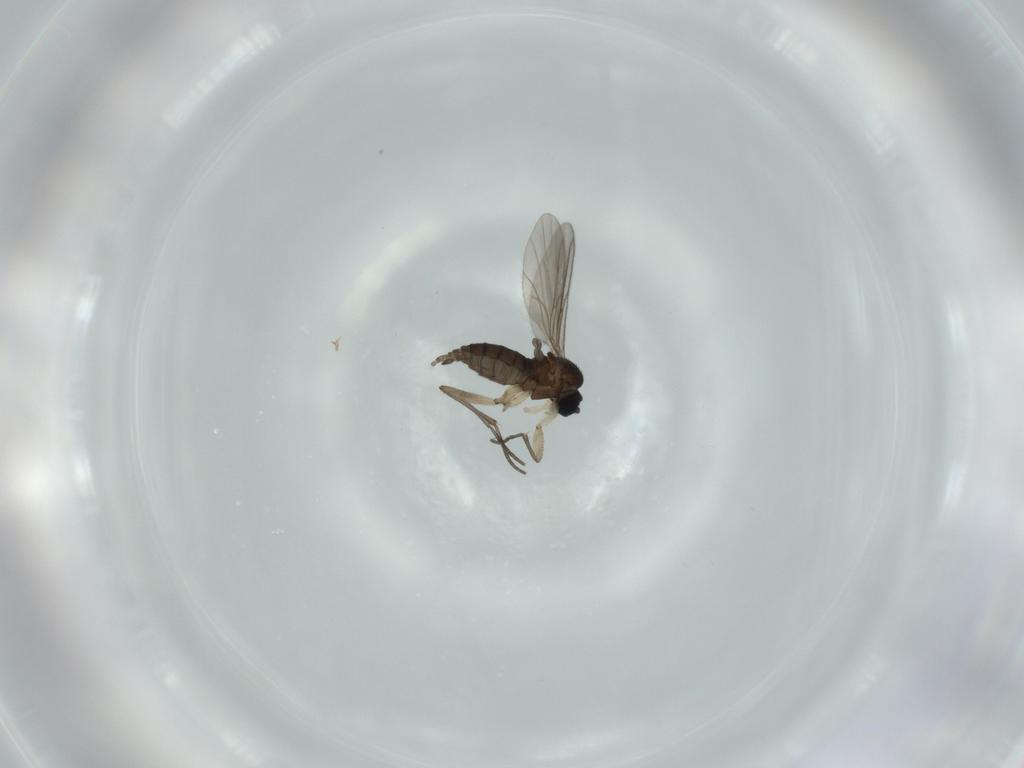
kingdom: Animalia
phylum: Arthropoda
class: Insecta
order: Diptera
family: Sciaridae
